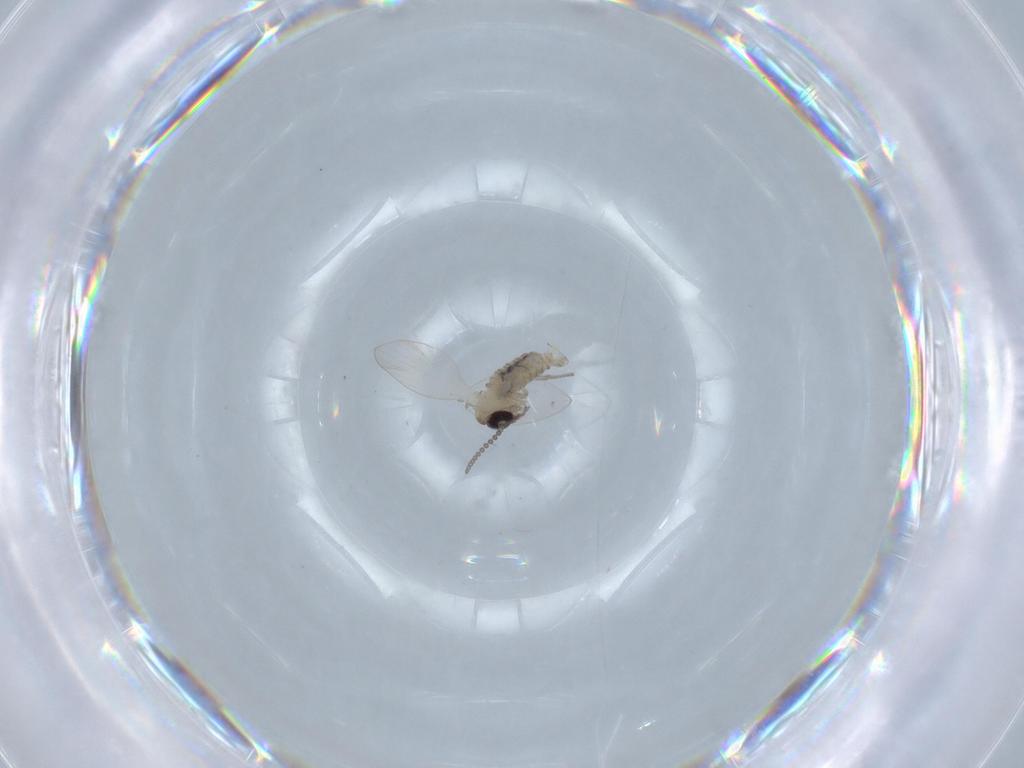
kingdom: Animalia
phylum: Arthropoda
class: Insecta
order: Diptera
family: Psychodidae
